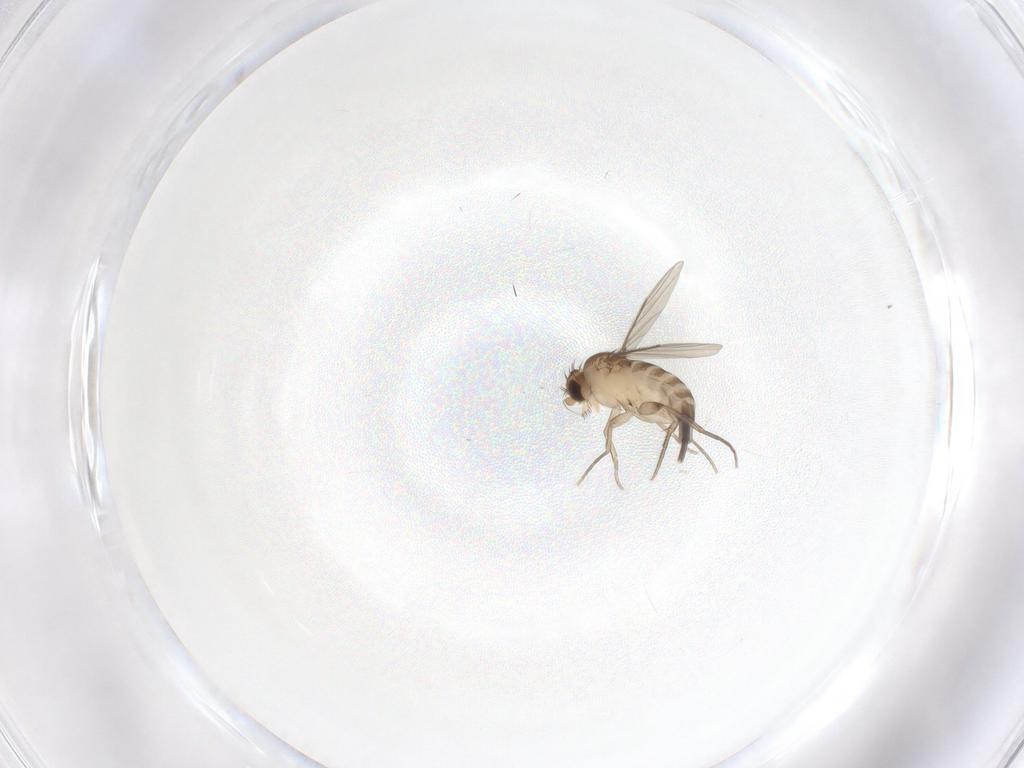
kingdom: Animalia
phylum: Arthropoda
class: Insecta
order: Diptera
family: Phoridae
